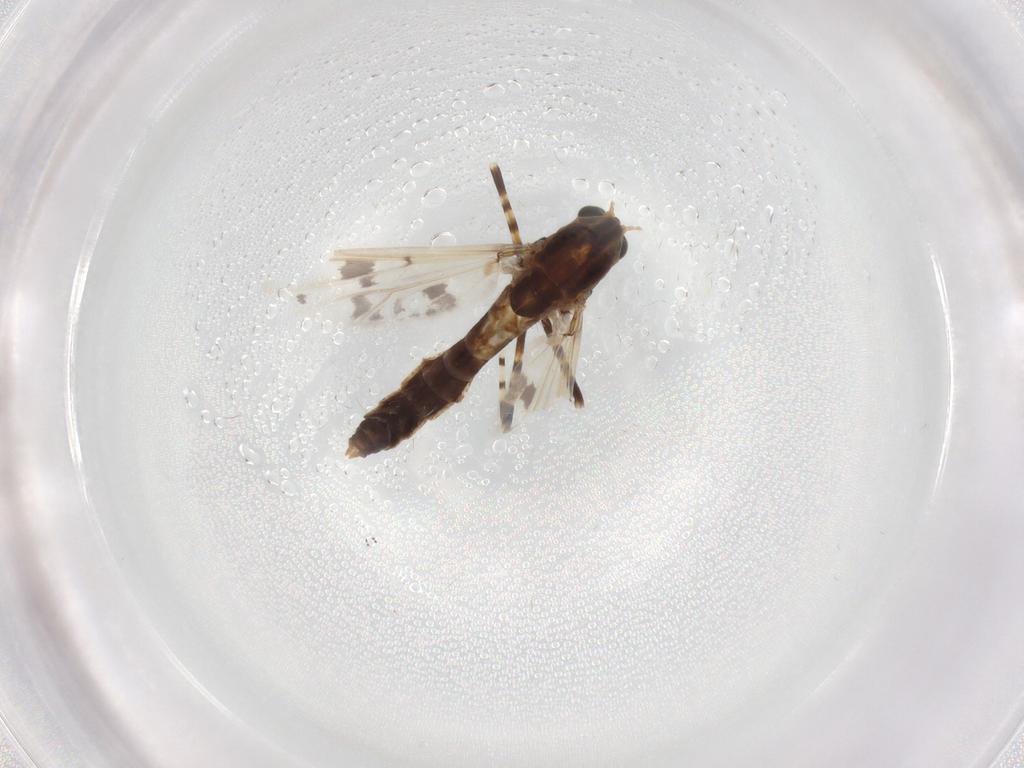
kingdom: Animalia
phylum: Arthropoda
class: Insecta
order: Diptera
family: Chironomidae
